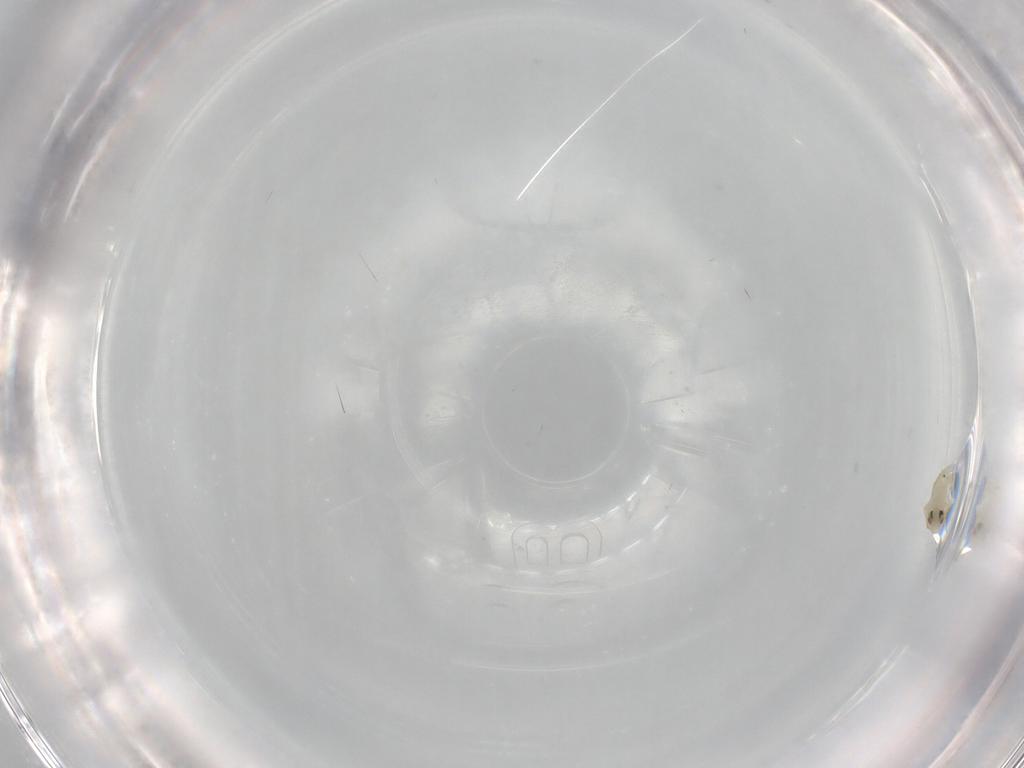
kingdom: Animalia
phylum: Arthropoda
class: Insecta
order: Hemiptera
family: Aleyrodidae
